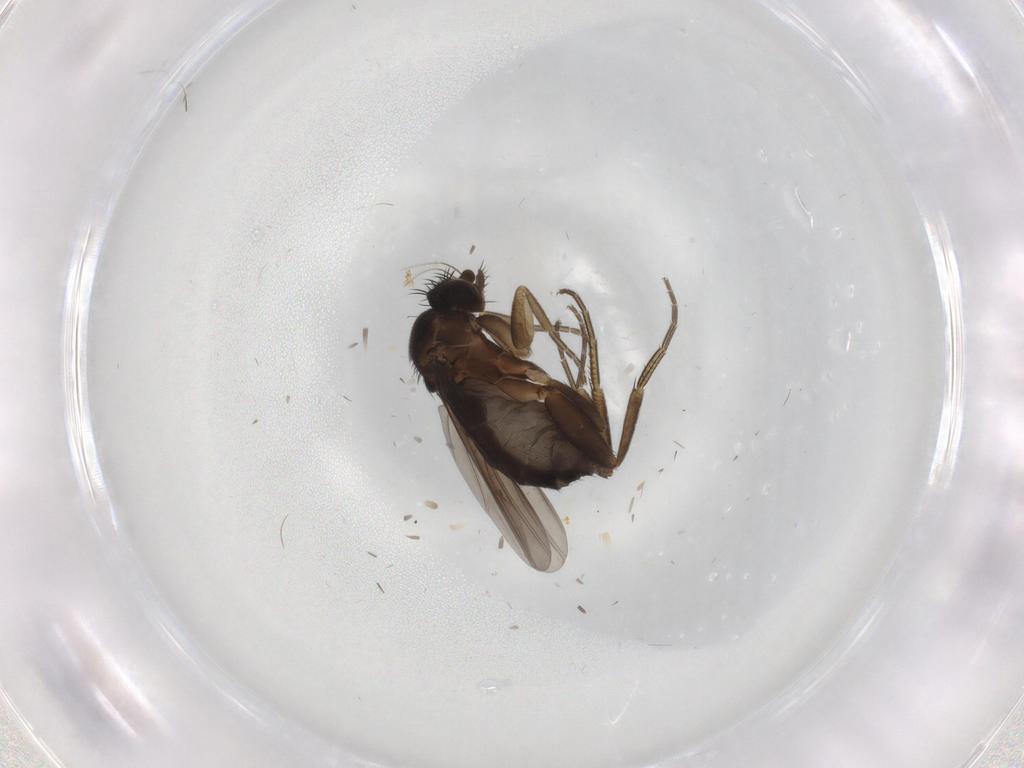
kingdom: Animalia
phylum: Arthropoda
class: Insecta
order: Diptera
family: Phoridae
